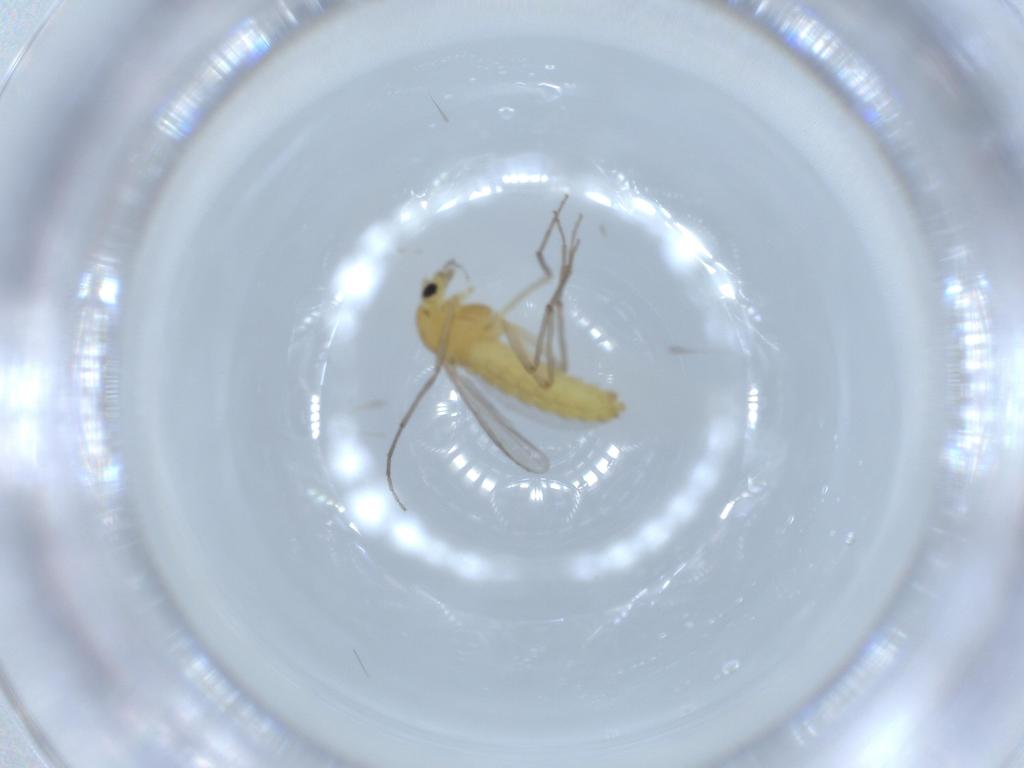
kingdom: Animalia
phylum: Arthropoda
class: Insecta
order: Diptera
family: Chironomidae
